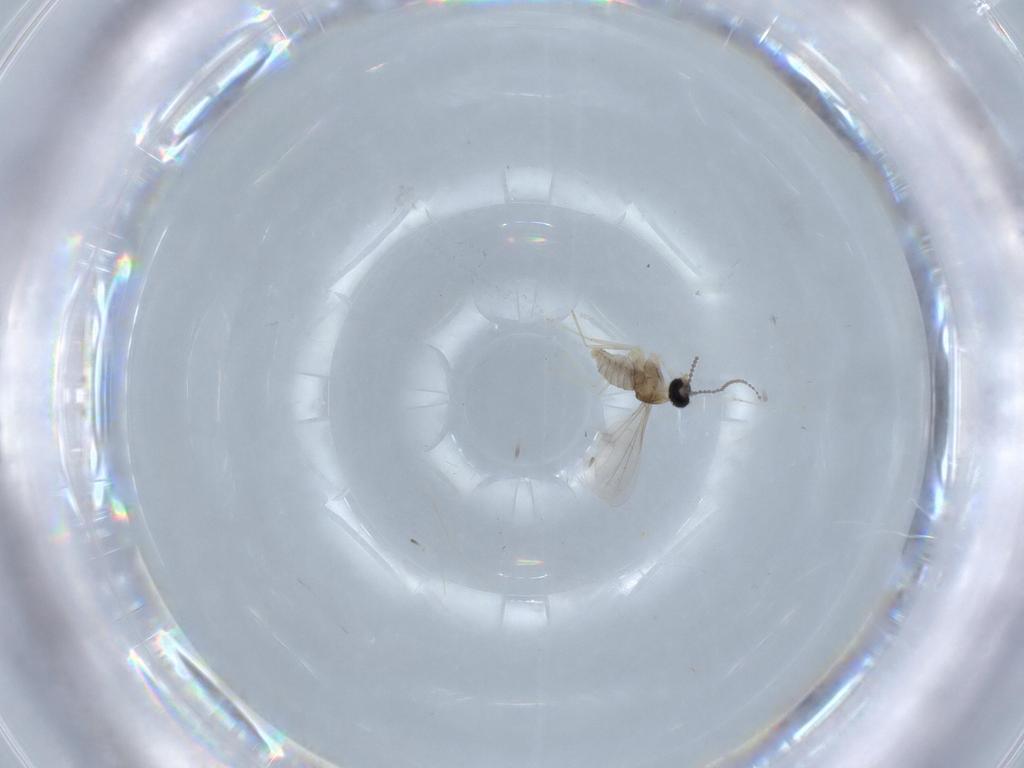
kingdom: Animalia
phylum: Arthropoda
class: Insecta
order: Diptera
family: Cecidomyiidae
